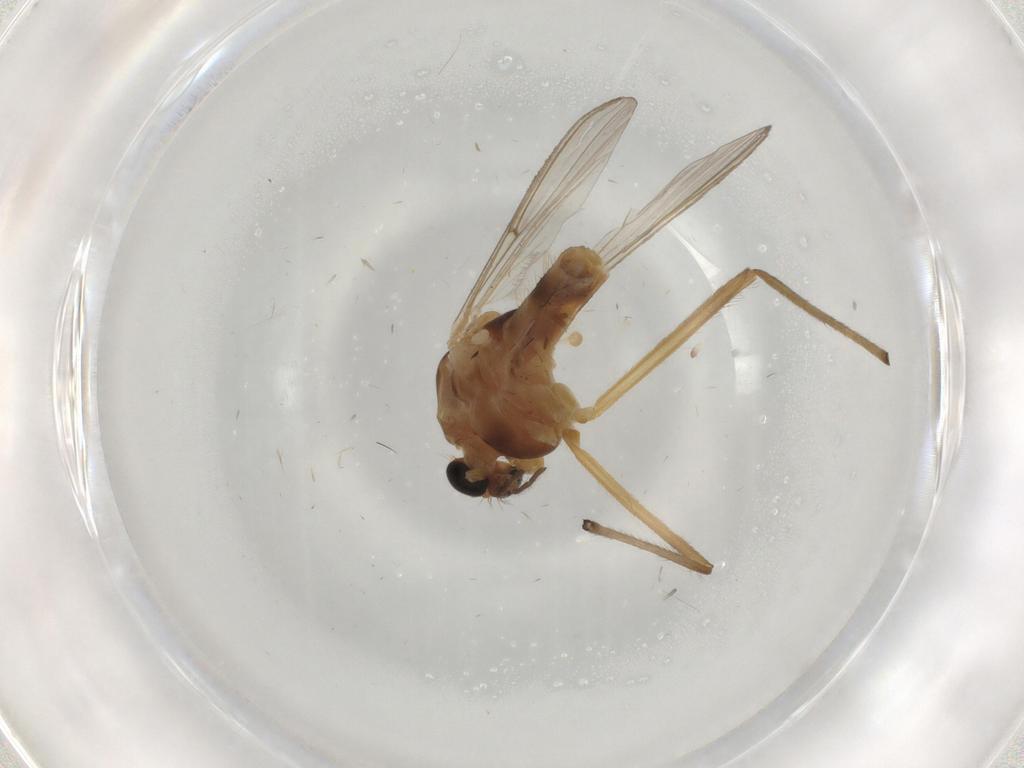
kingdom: Animalia
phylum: Arthropoda
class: Insecta
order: Diptera
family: Chironomidae
